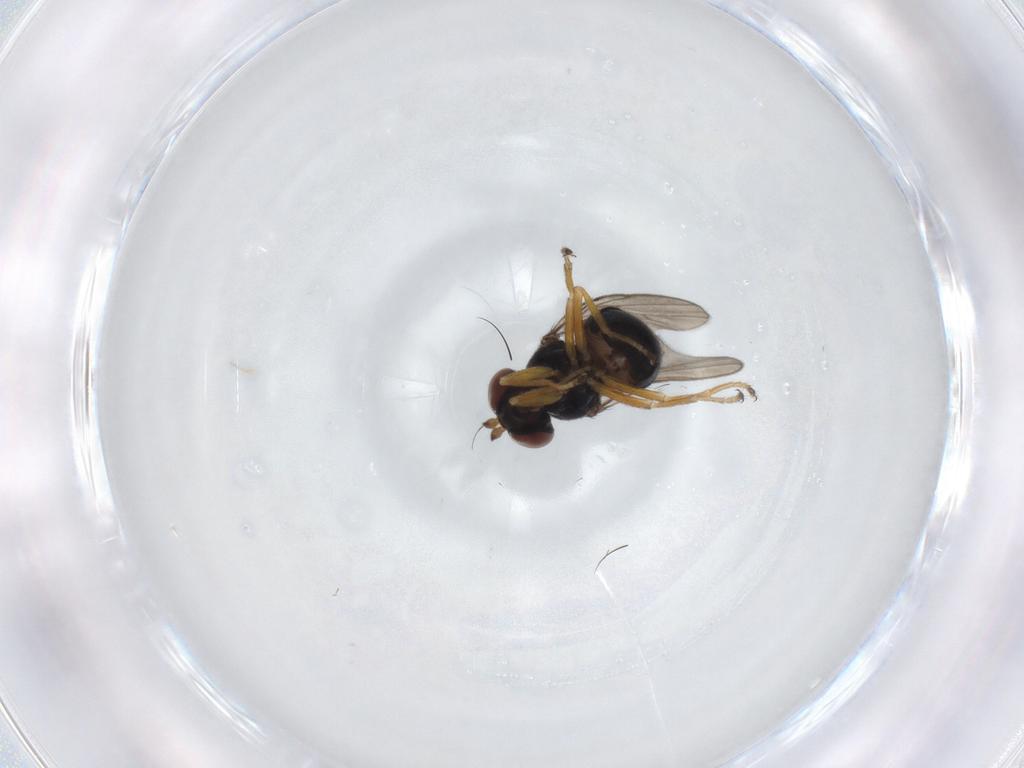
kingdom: Animalia
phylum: Arthropoda
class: Insecta
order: Diptera
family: Ephydridae
